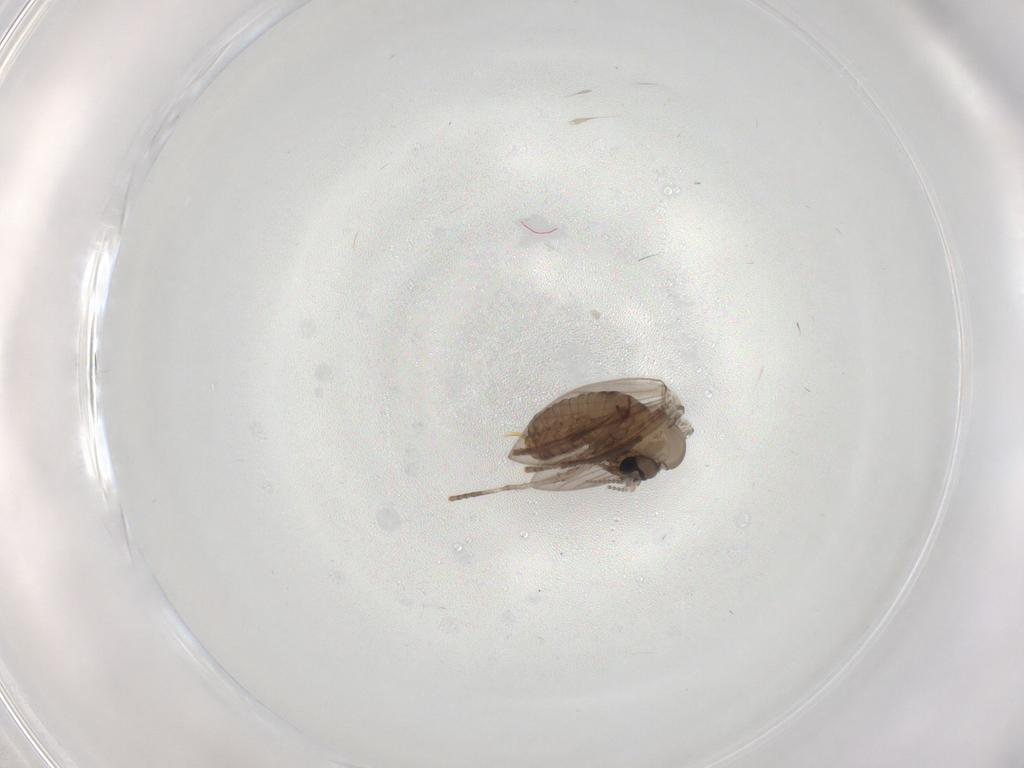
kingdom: Animalia
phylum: Arthropoda
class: Insecta
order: Diptera
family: Psychodidae
